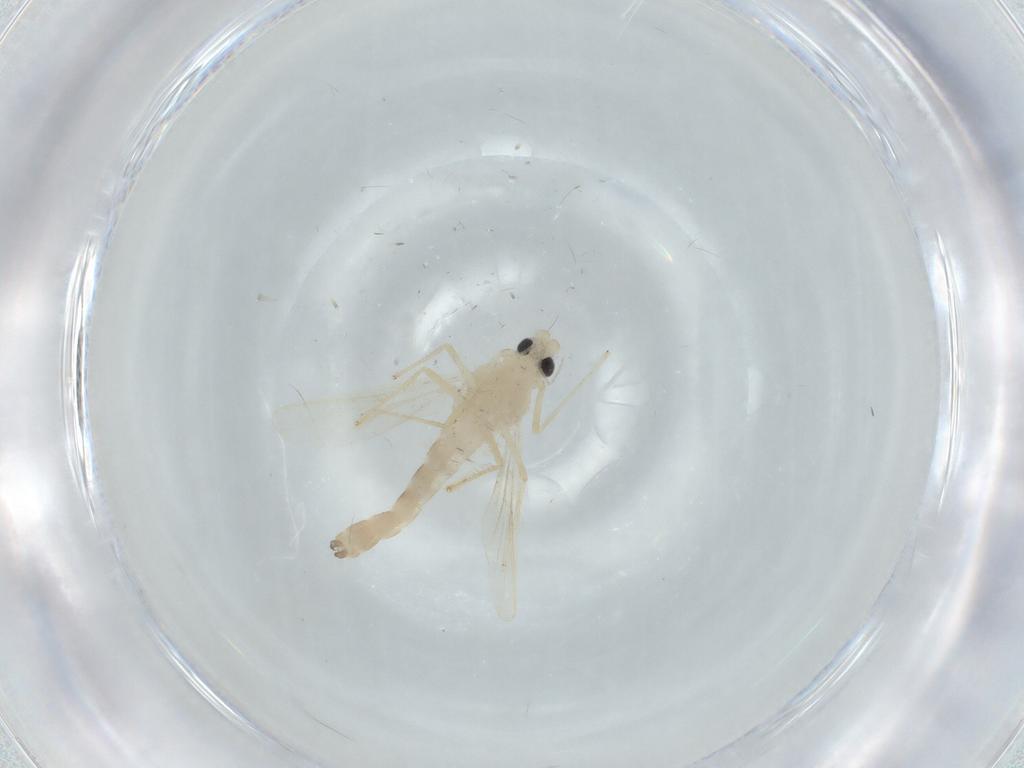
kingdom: Animalia
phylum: Arthropoda
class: Insecta
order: Diptera
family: Chironomidae
